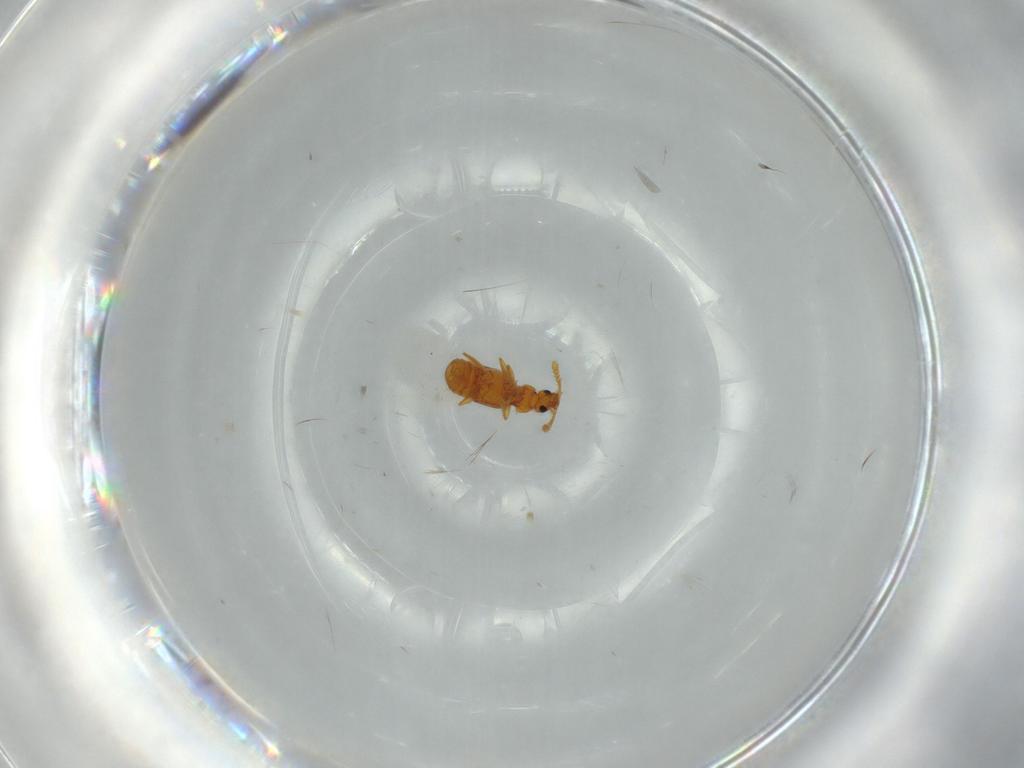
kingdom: Animalia
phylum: Arthropoda
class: Insecta
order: Coleoptera
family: Staphylinidae
